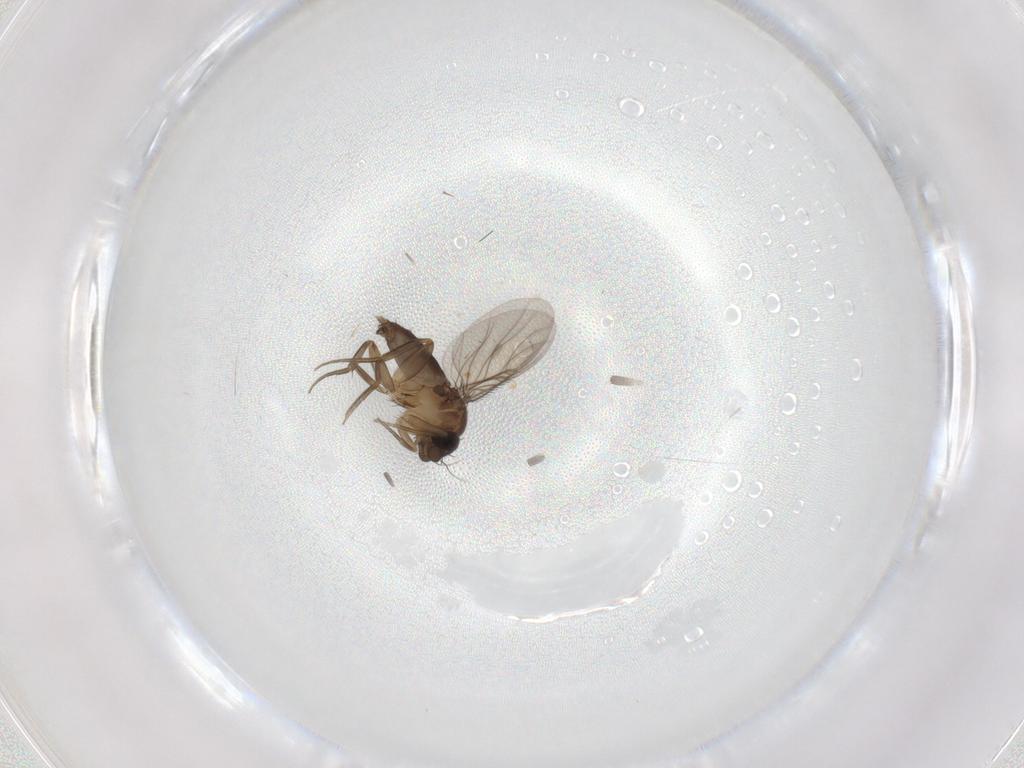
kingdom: Animalia
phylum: Arthropoda
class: Insecta
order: Diptera
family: Phoridae
